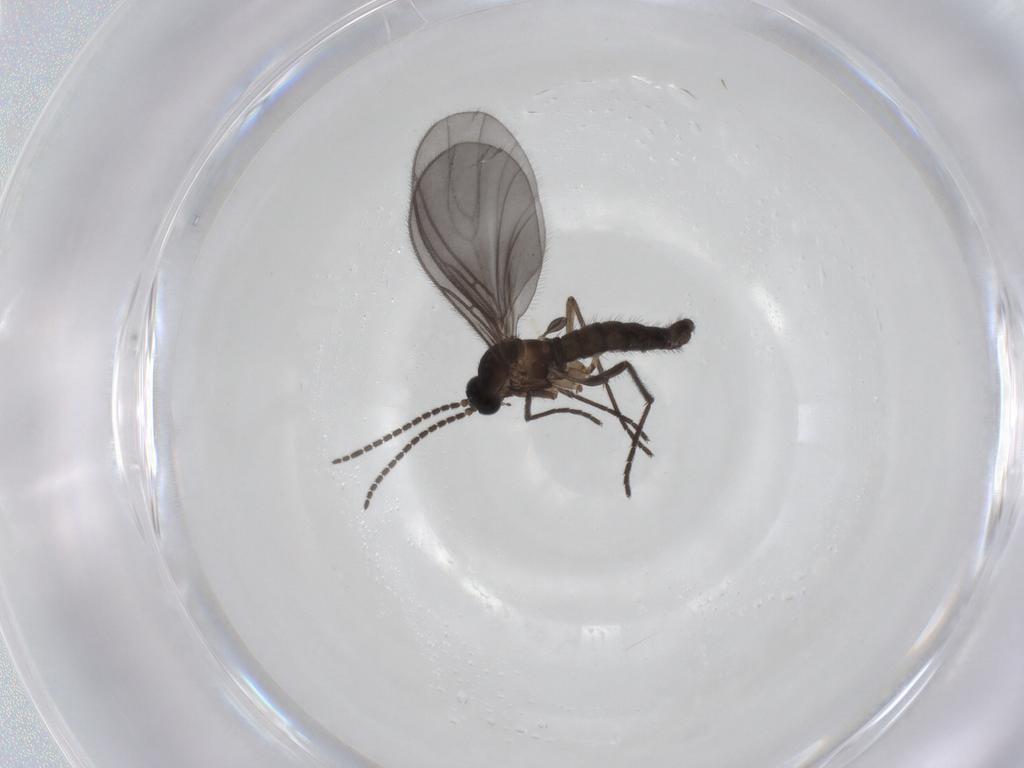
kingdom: Animalia
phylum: Arthropoda
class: Insecta
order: Diptera
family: Sciaridae
